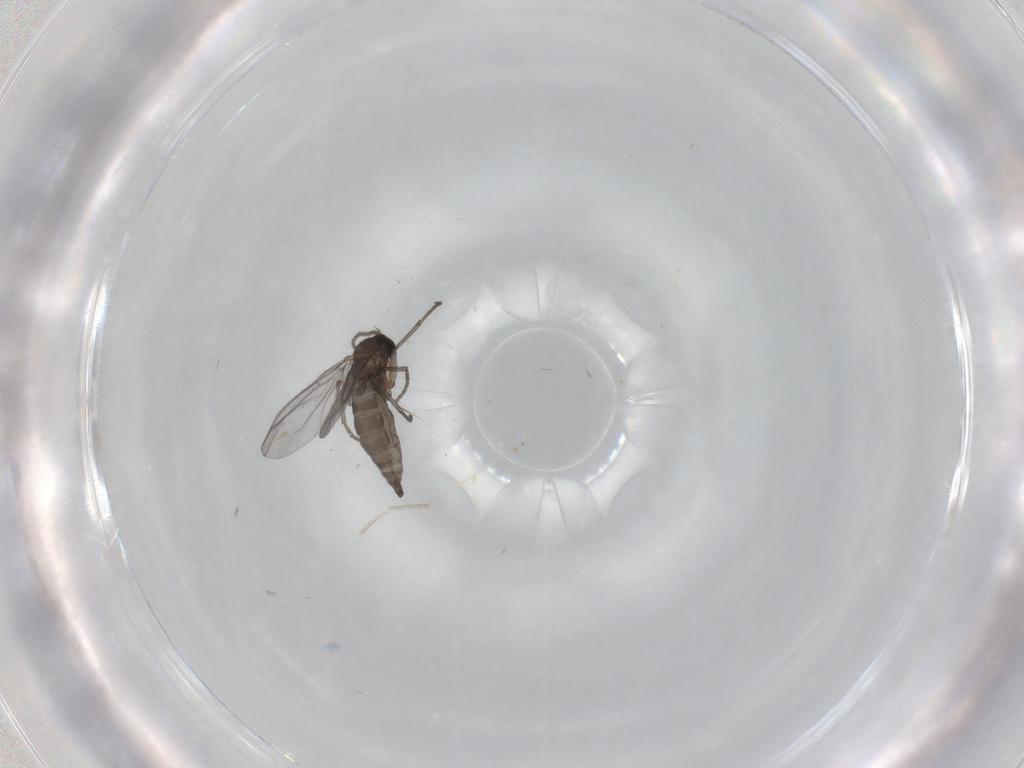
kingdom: Animalia
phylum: Arthropoda
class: Insecta
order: Diptera
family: Sciaridae
